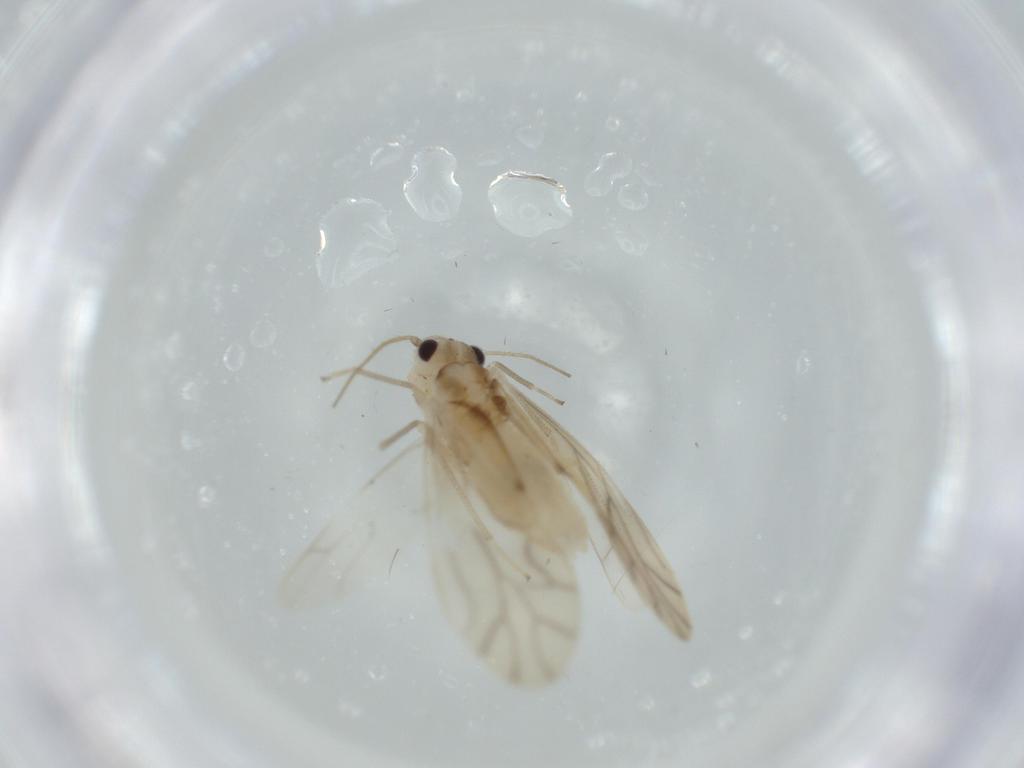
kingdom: Animalia
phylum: Arthropoda
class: Insecta
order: Psocodea
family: Caeciliusidae
